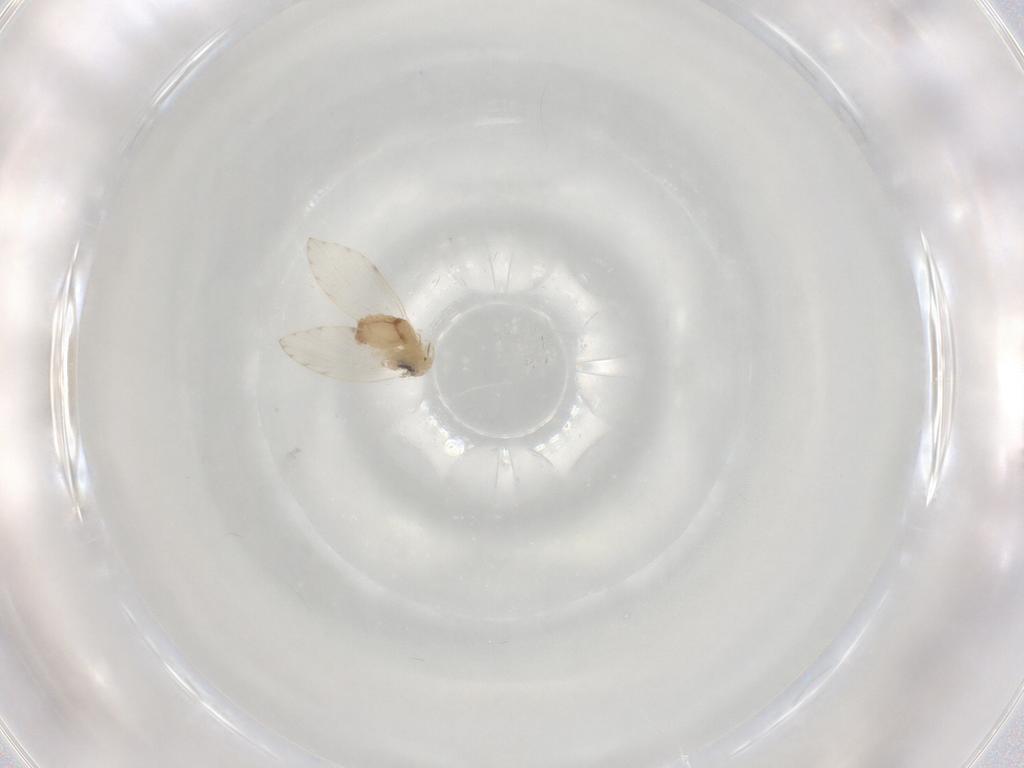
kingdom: Animalia
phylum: Arthropoda
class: Insecta
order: Diptera
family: Psychodidae
